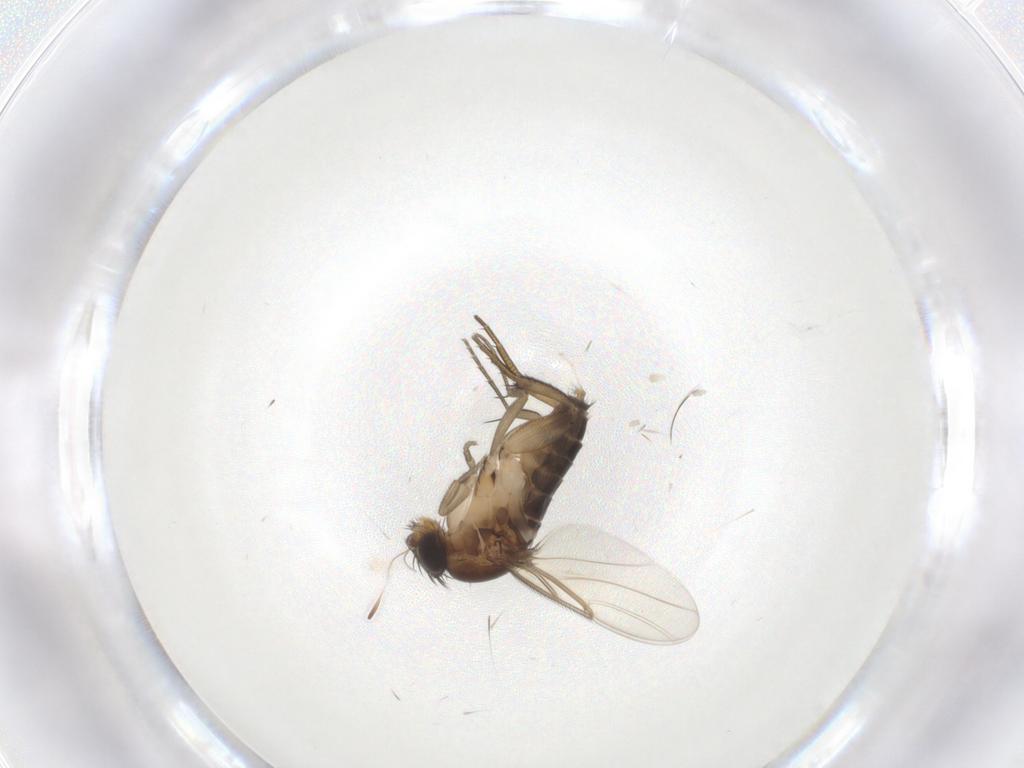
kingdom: Animalia
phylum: Arthropoda
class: Insecta
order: Diptera
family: Phoridae
